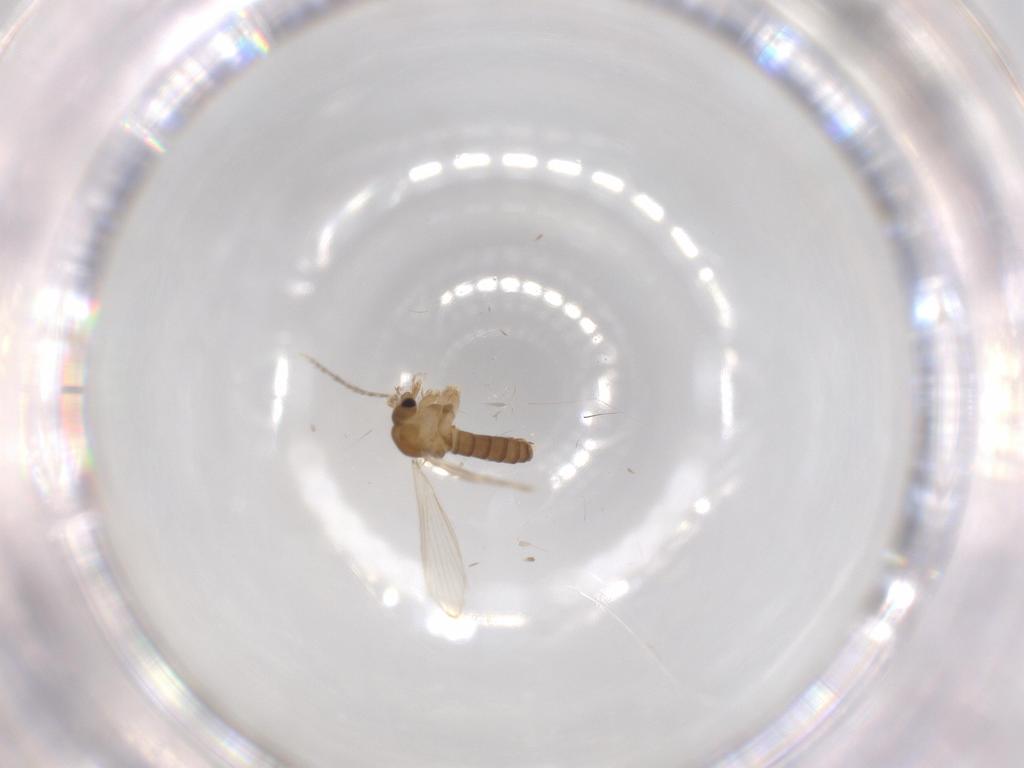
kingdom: Animalia
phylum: Arthropoda
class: Insecta
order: Diptera
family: Psychodidae
